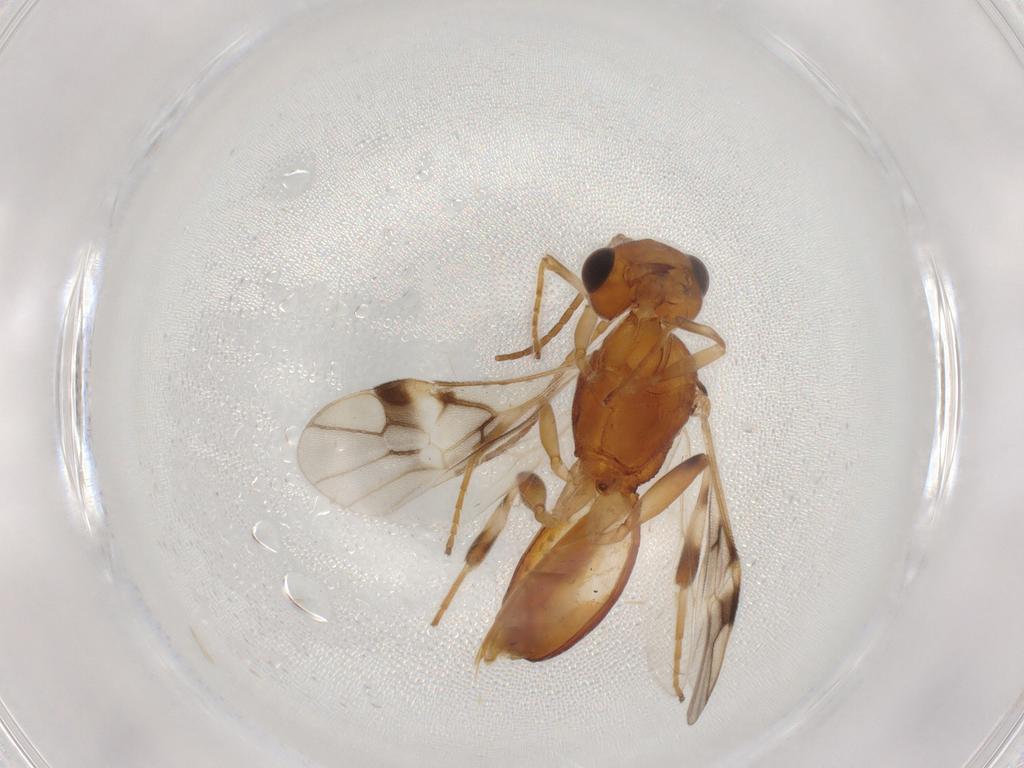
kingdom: Animalia
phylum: Arthropoda
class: Insecta
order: Hymenoptera
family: Braconidae
